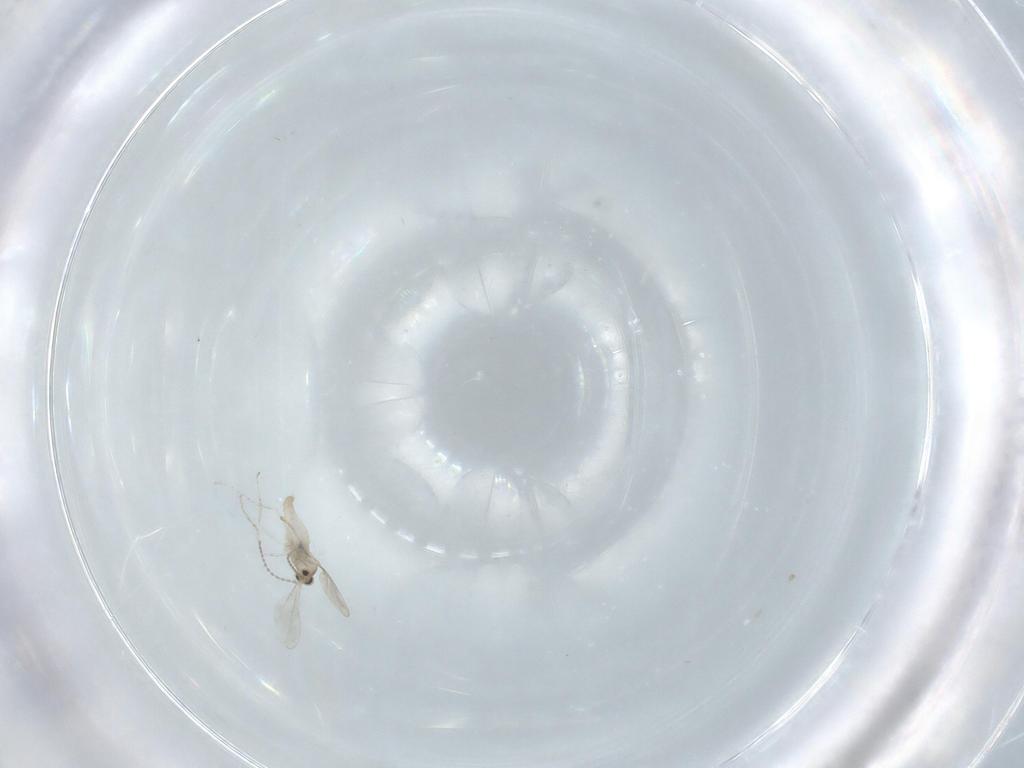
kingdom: Animalia
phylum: Arthropoda
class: Insecta
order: Diptera
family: Cecidomyiidae
